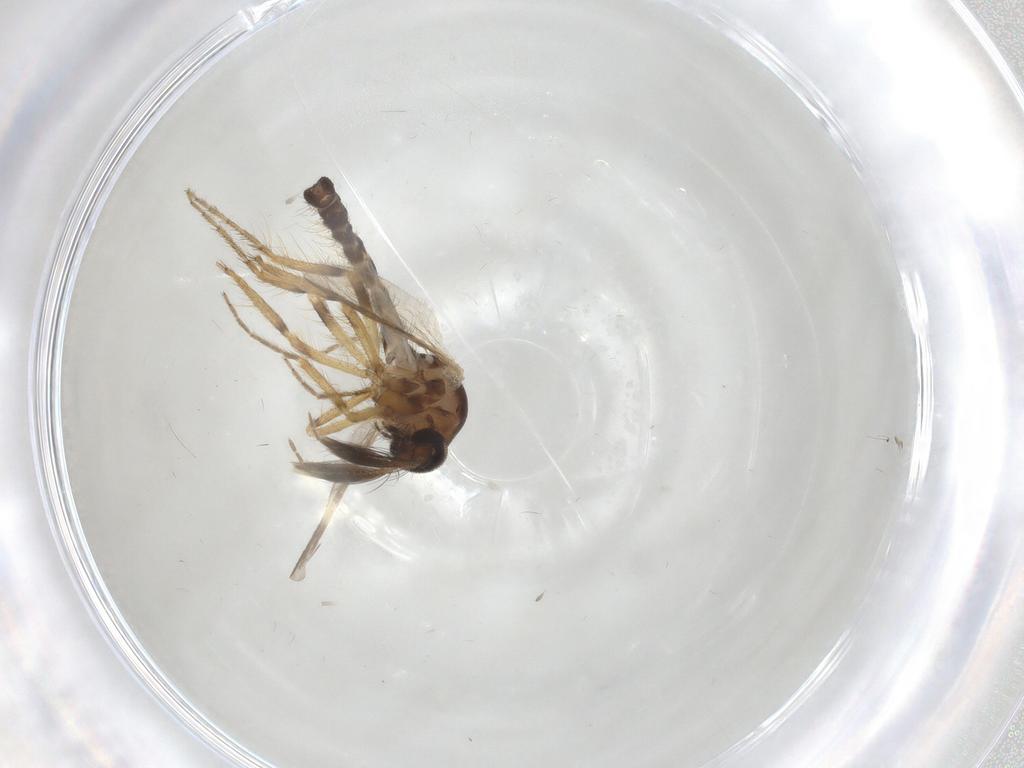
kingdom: Animalia
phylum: Arthropoda
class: Insecta
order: Diptera
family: Ceratopogonidae
